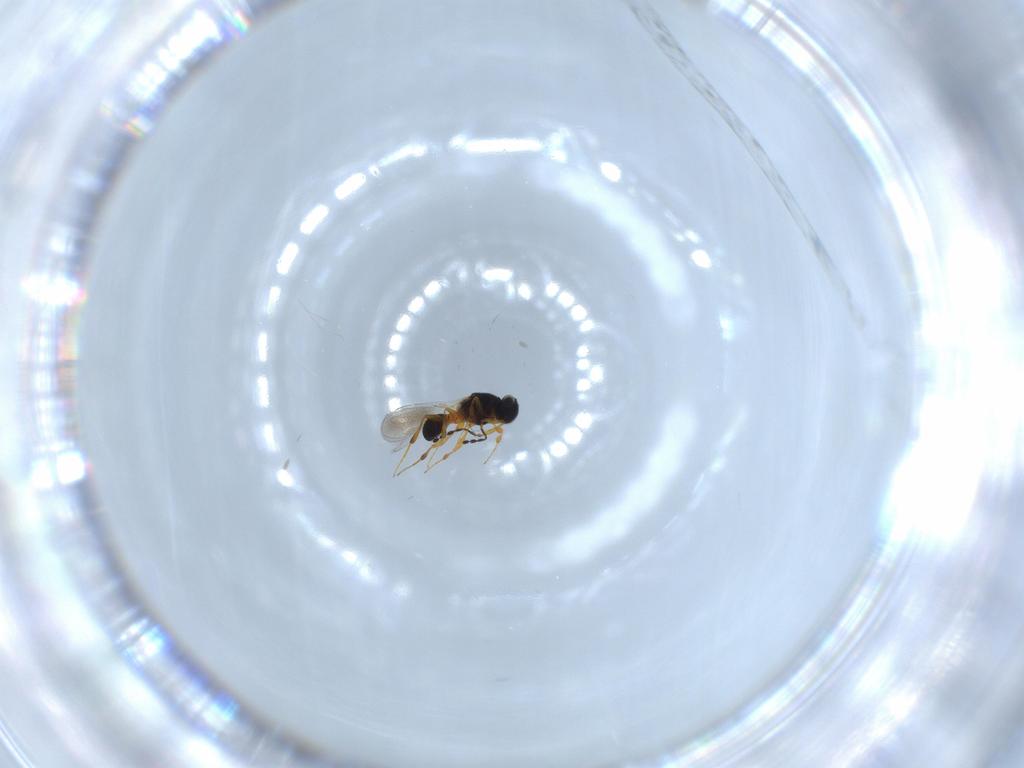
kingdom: Animalia
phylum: Arthropoda
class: Insecta
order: Hymenoptera
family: Platygastridae
